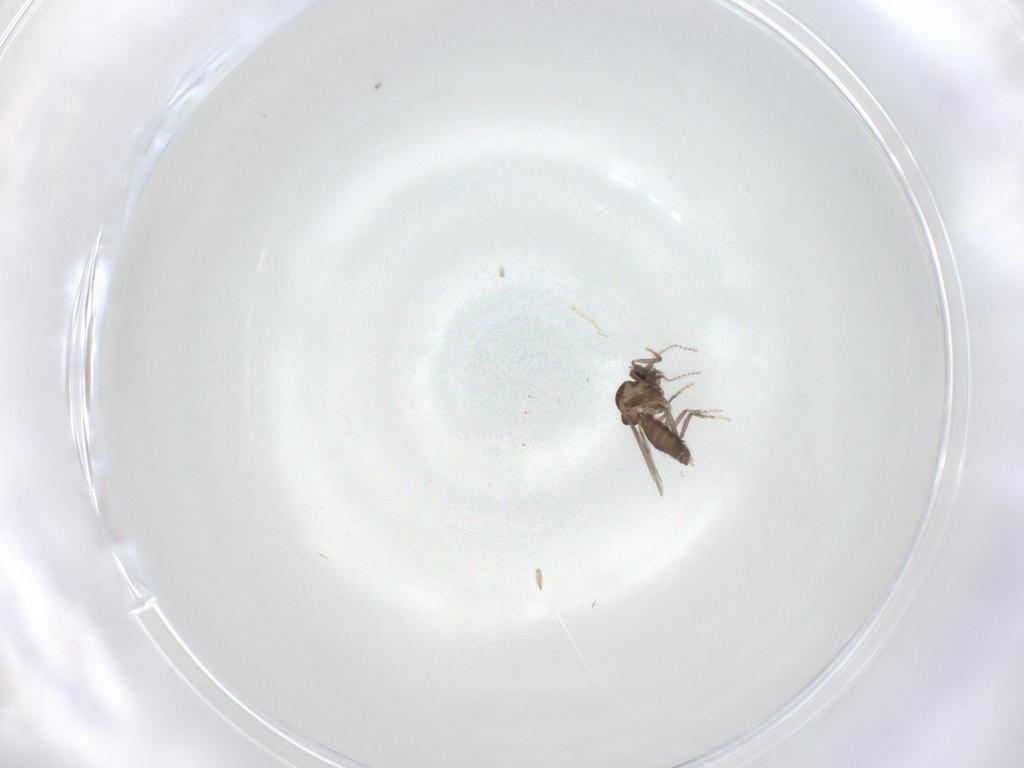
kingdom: Animalia
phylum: Arthropoda
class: Insecta
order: Diptera
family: Ceratopogonidae
